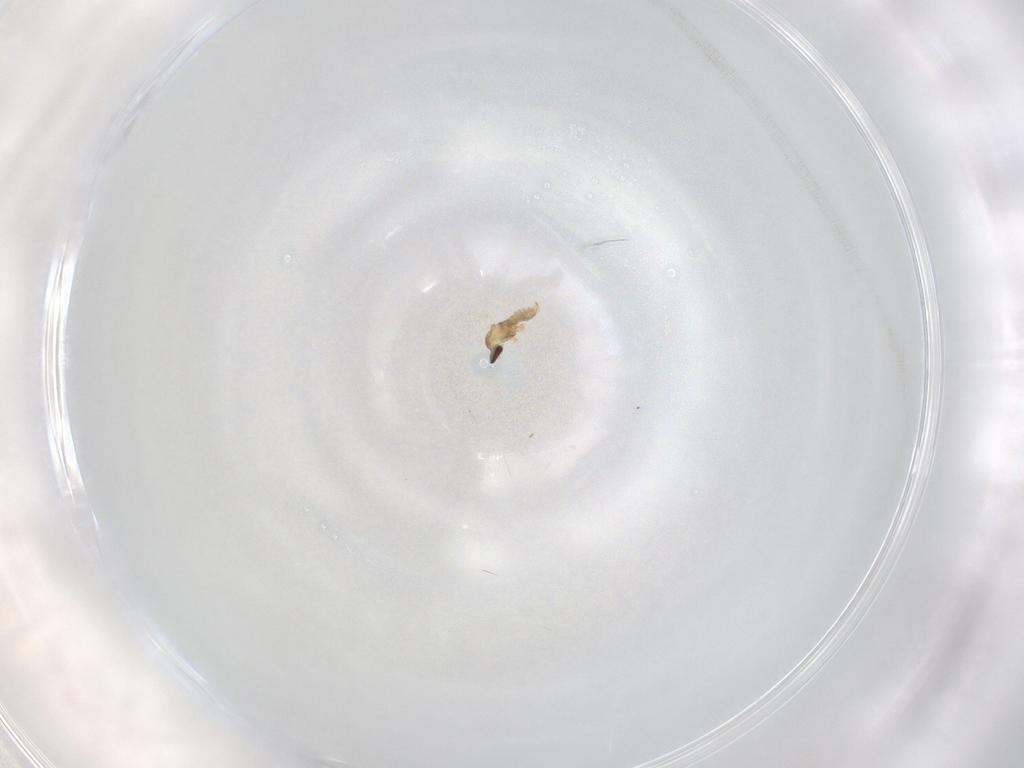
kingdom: Animalia
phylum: Arthropoda
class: Insecta
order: Diptera
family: Cecidomyiidae
